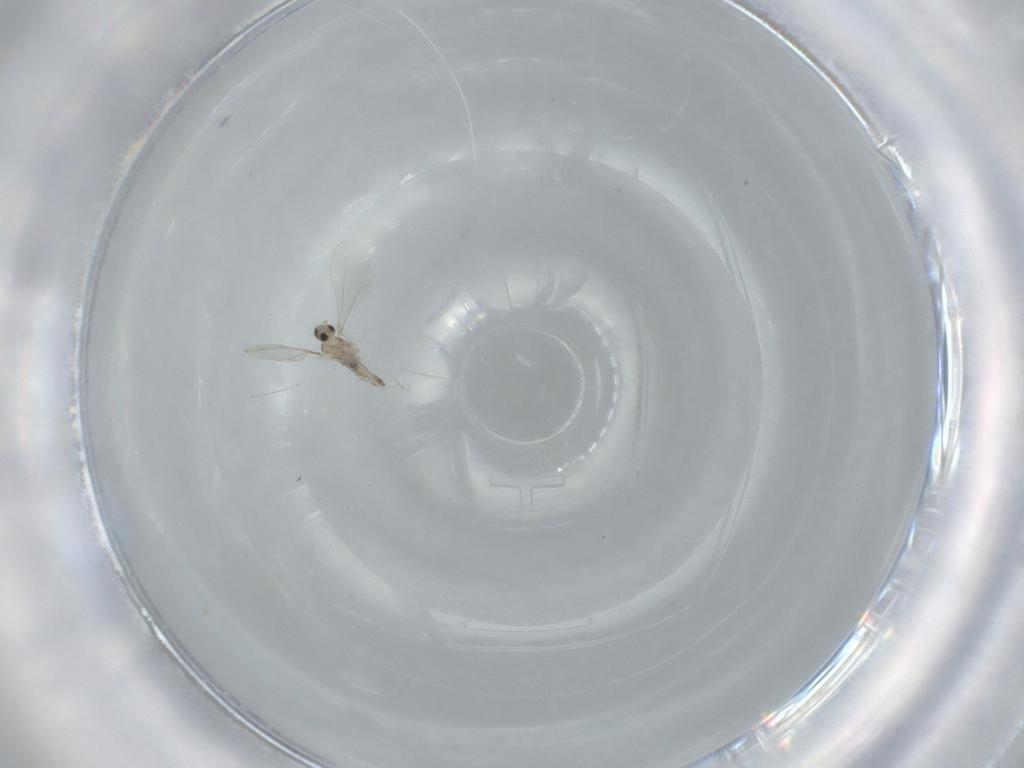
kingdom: Animalia
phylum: Arthropoda
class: Insecta
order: Diptera
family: Cecidomyiidae
